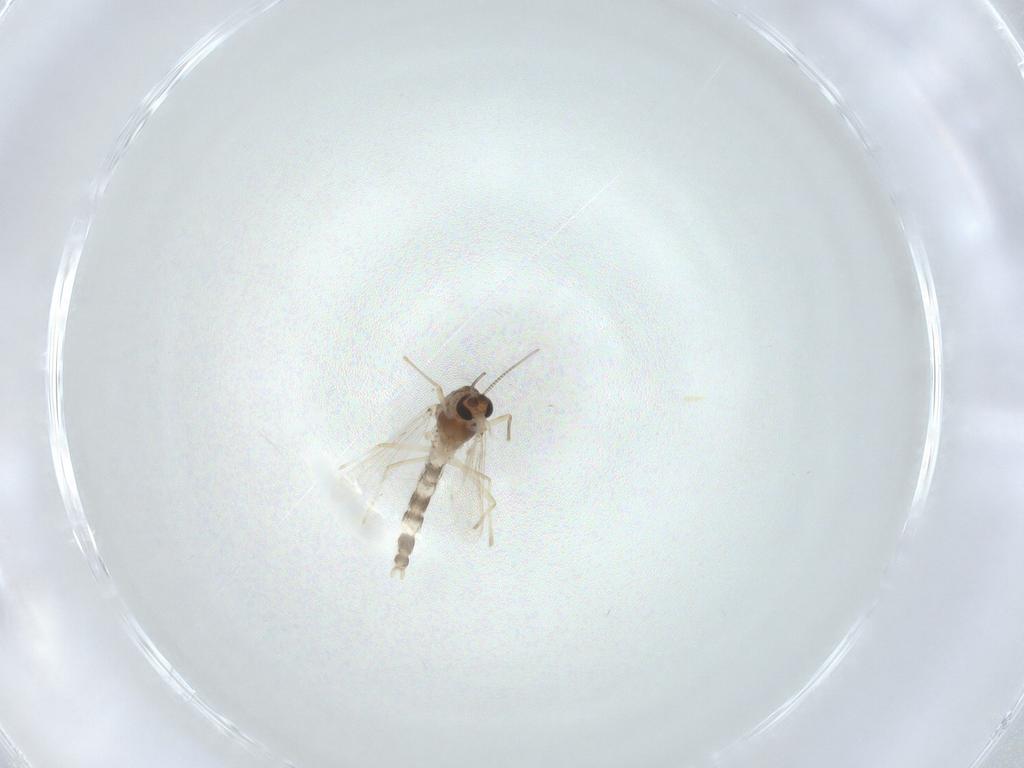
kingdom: Animalia
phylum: Arthropoda
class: Insecta
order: Diptera
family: Chironomidae
